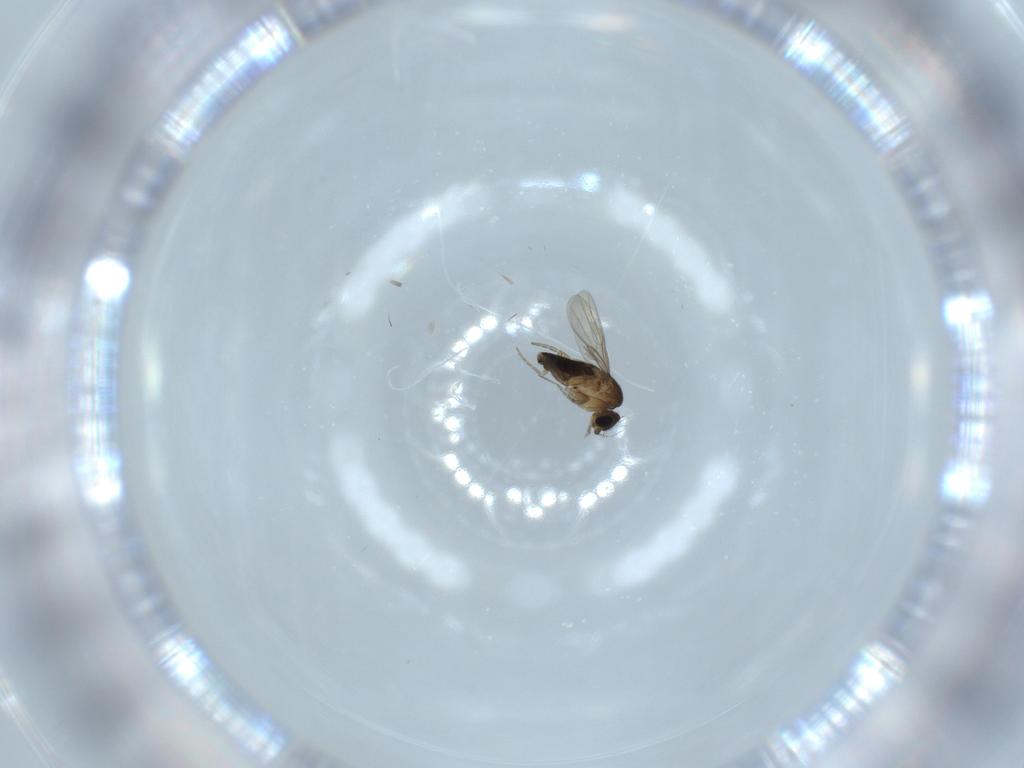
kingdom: Animalia
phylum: Arthropoda
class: Insecta
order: Diptera
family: Phoridae
